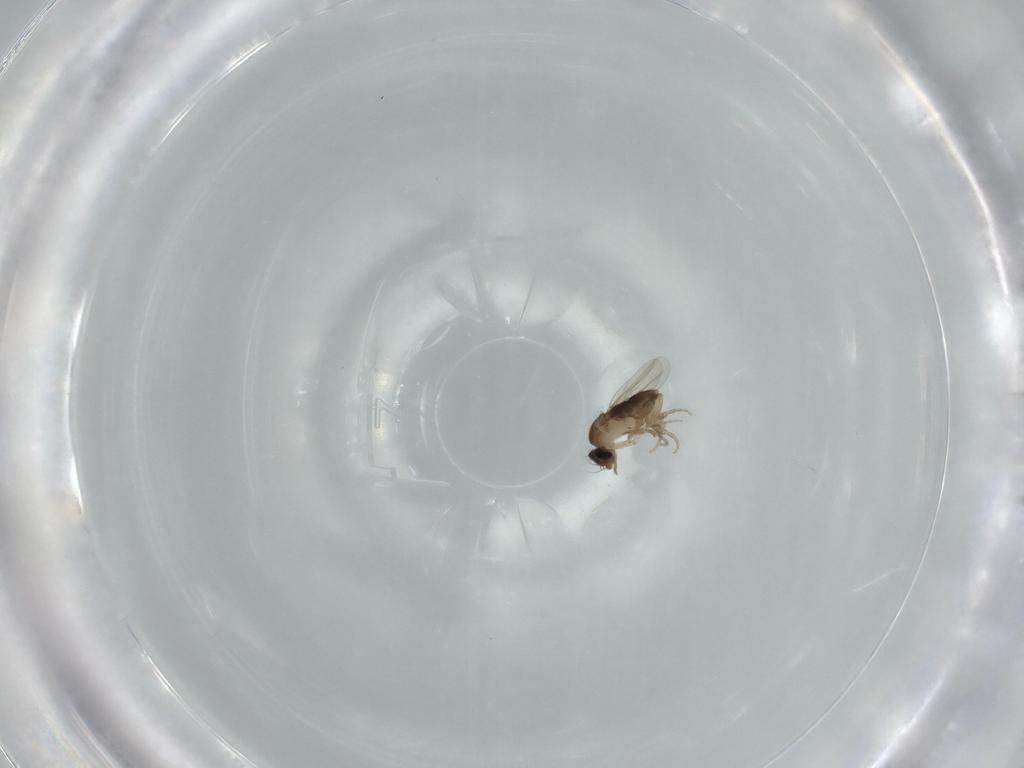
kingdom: Animalia
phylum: Arthropoda
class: Insecta
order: Diptera
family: Phoridae
